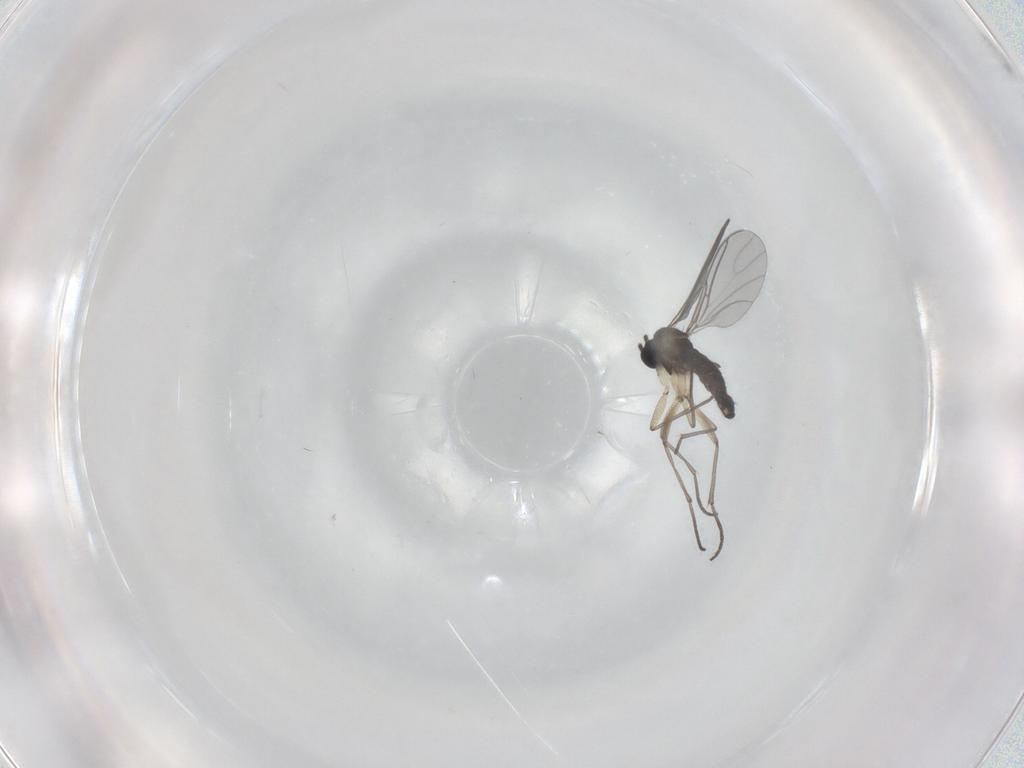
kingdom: Animalia
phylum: Arthropoda
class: Insecta
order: Diptera
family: Sciaridae
